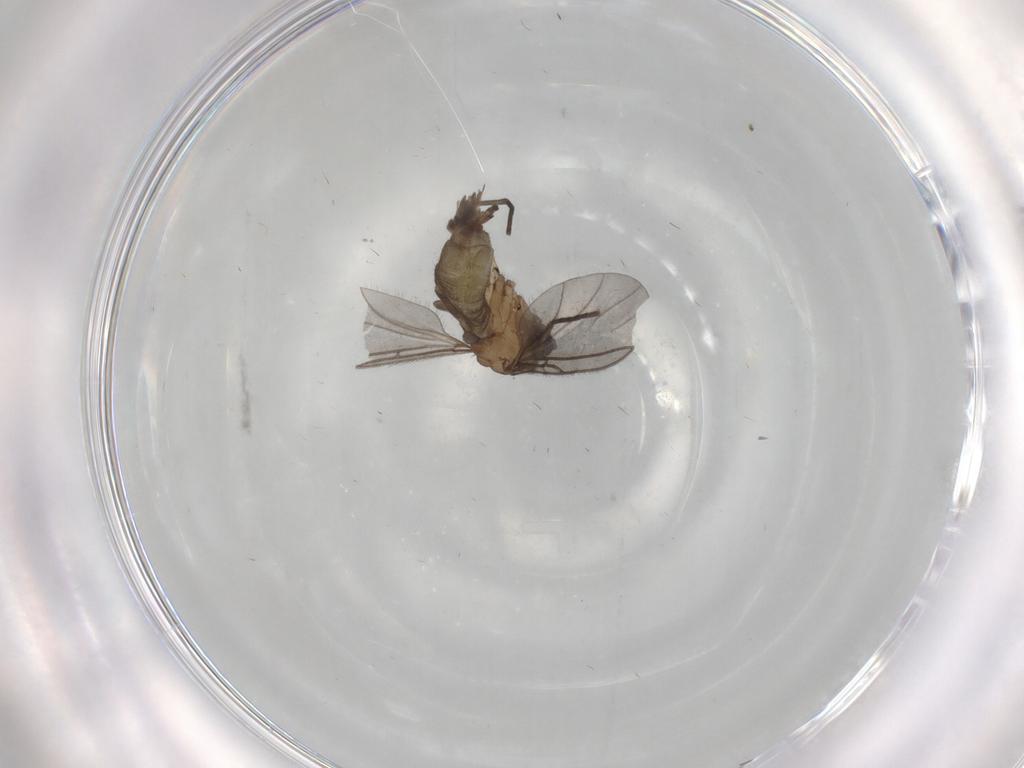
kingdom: Animalia
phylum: Arthropoda
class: Insecta
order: Diptera
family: Sciaridae
